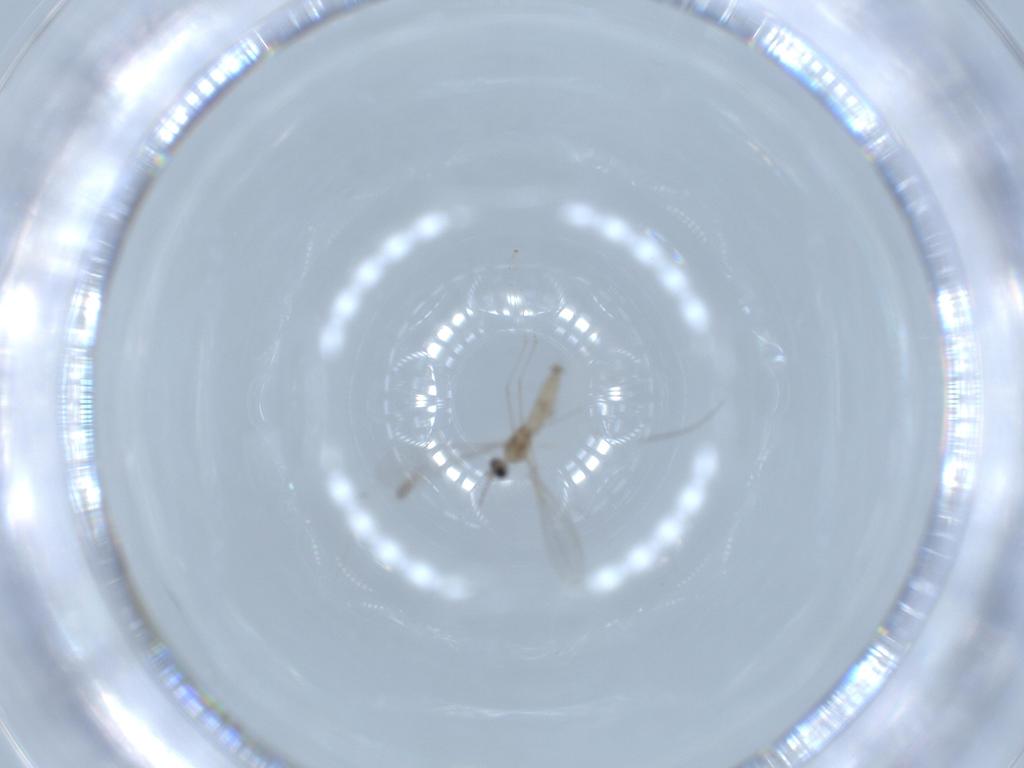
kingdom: Animalia
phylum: Arthropoda
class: Insecta
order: Diptera
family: Cecidomyiidae
